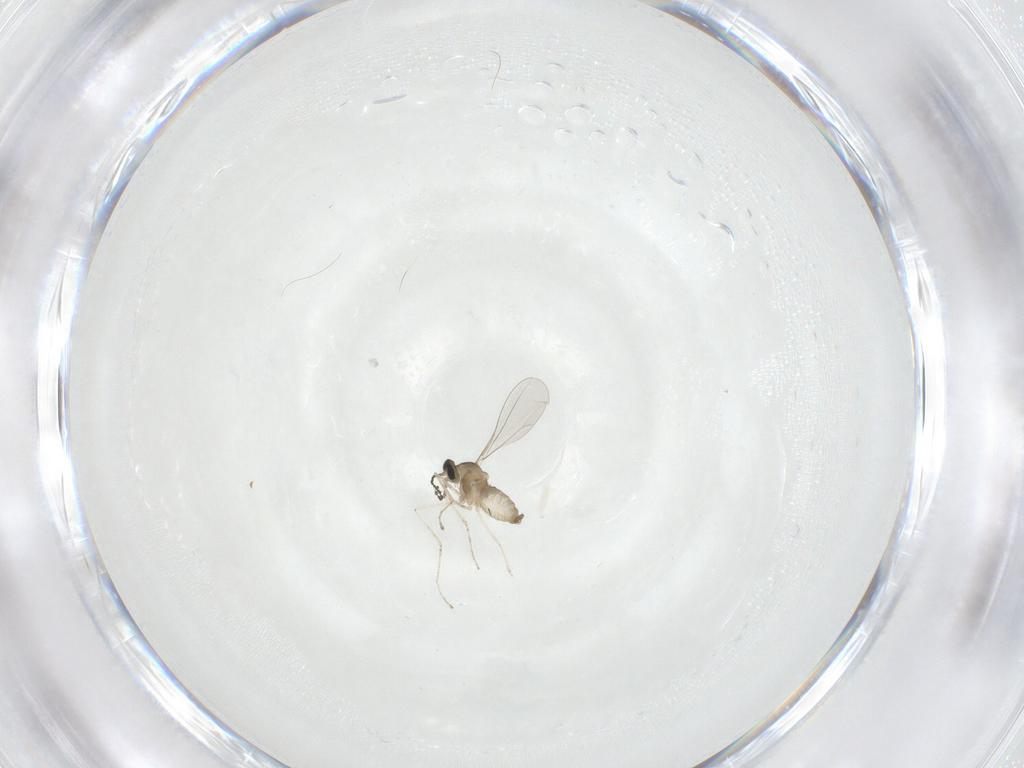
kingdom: Animalia
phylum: Arthropoda
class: Insecta
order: Diptera
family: Cecidomyiidae
